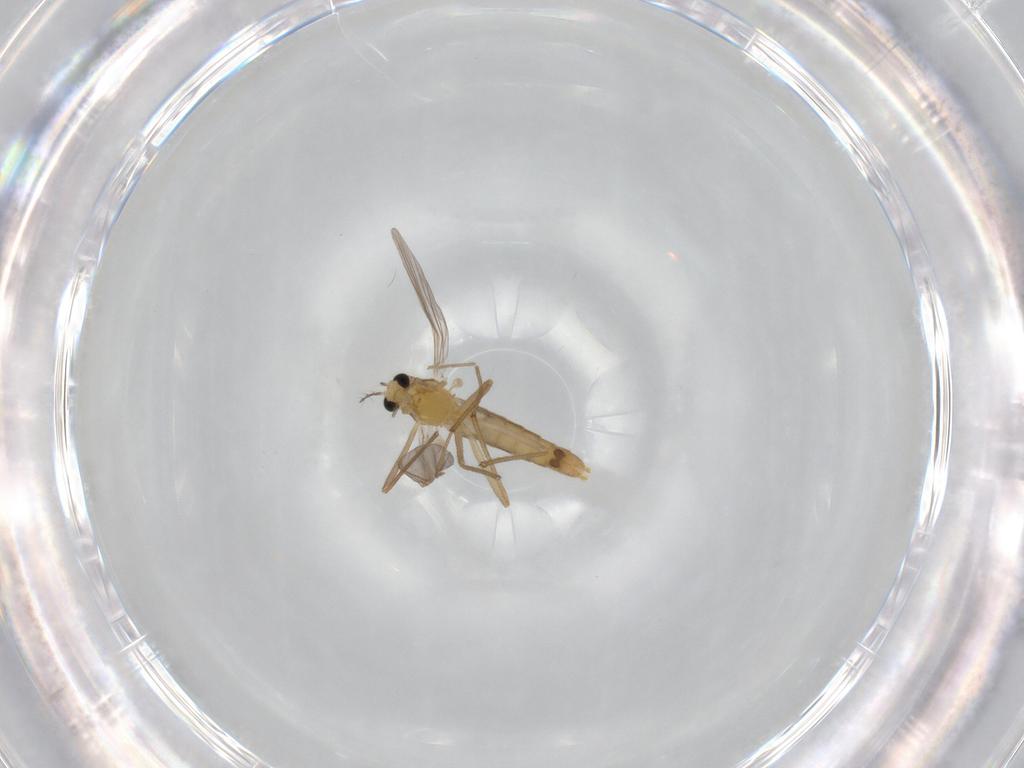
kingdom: Animalia
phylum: Arthropoda
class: Insecta
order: Diptera
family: Chironomidae
